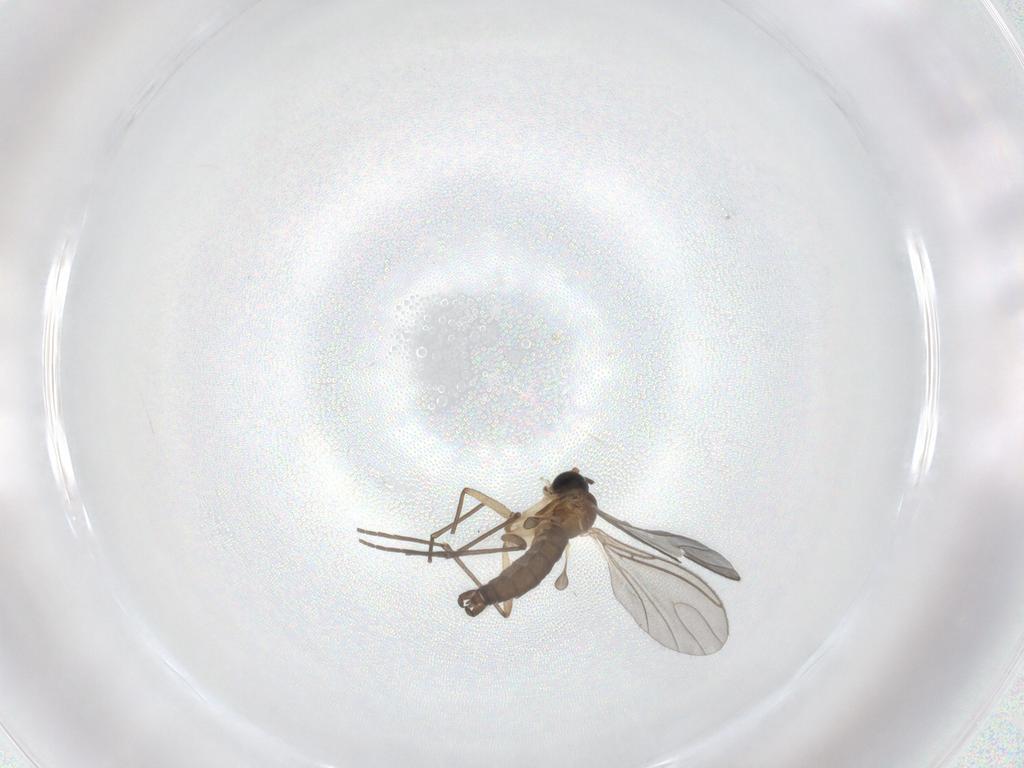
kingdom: Animalia
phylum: Arthropoda
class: Insecta
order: Diptera
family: Sciaridae
